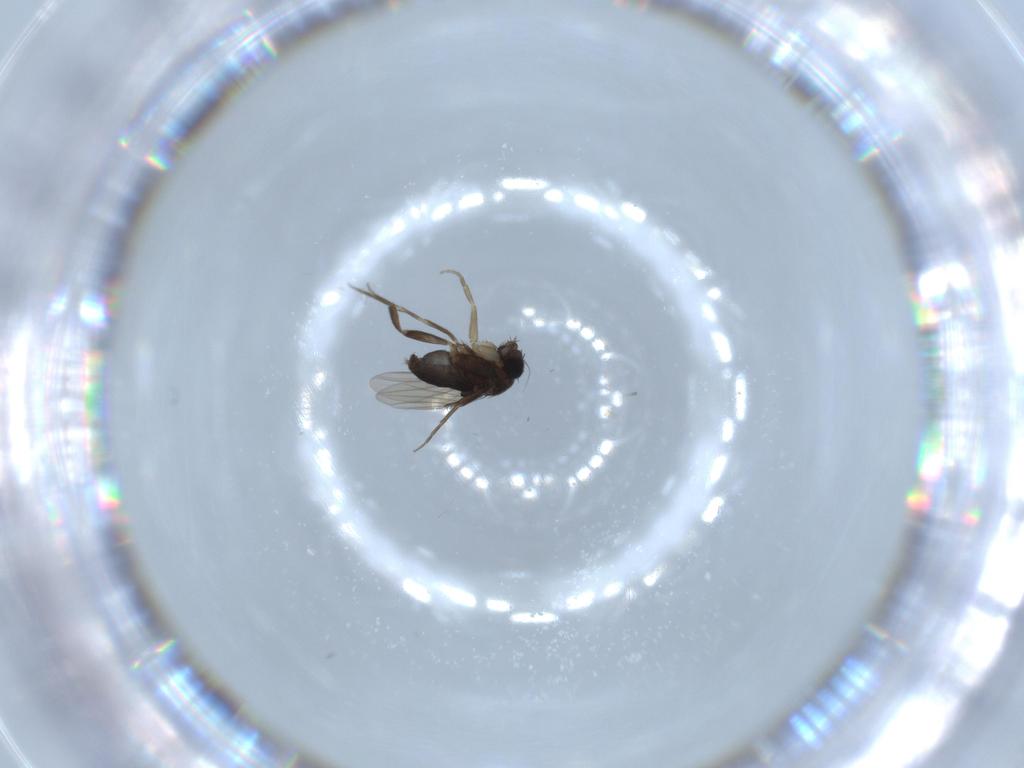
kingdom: Animalia
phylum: Arthropoda
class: Insecta
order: Diptera
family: Phoridae
